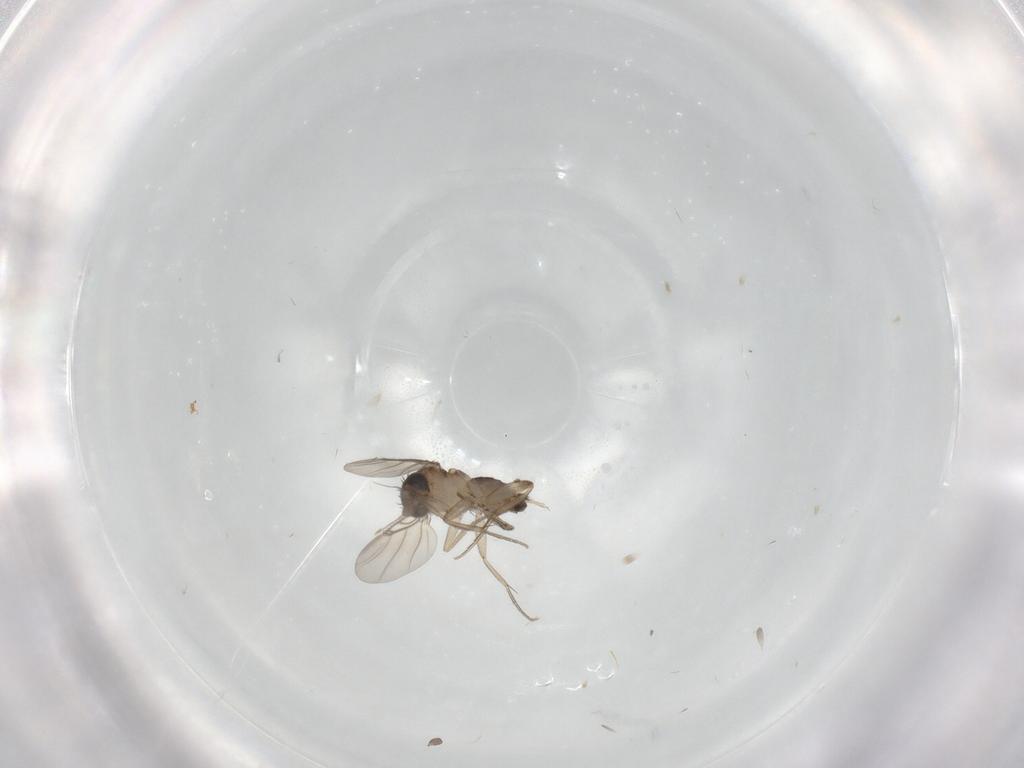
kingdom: Animalia
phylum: Arthropoda
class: Insecta
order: Diptera
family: Phoridae
